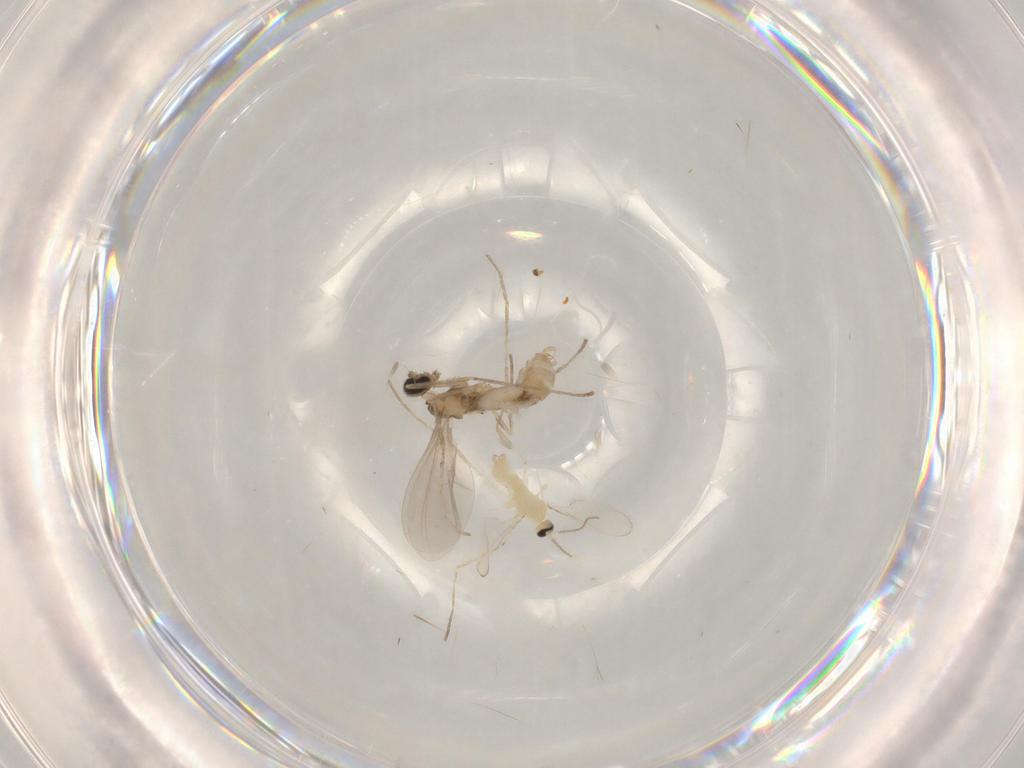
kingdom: Animalia
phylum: Arthropoda
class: Insecta
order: Diptera
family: Cecidomyiidae
